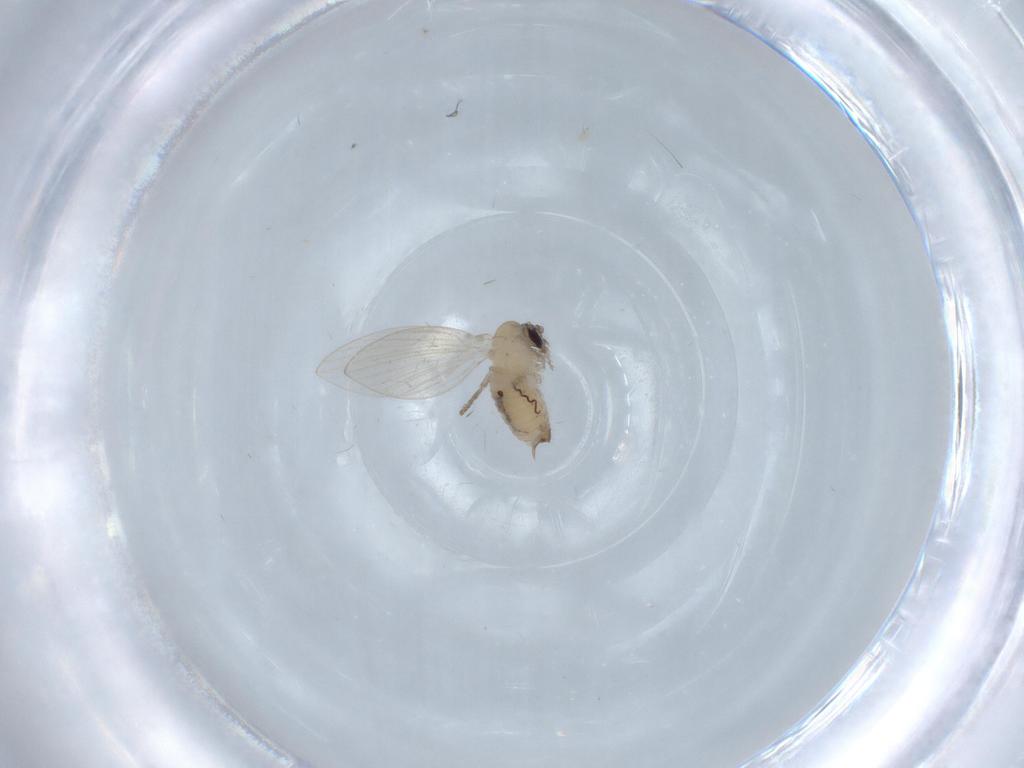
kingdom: Animalia
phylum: Arthropoda
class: Insecta
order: Diptera
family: Psychodidae
